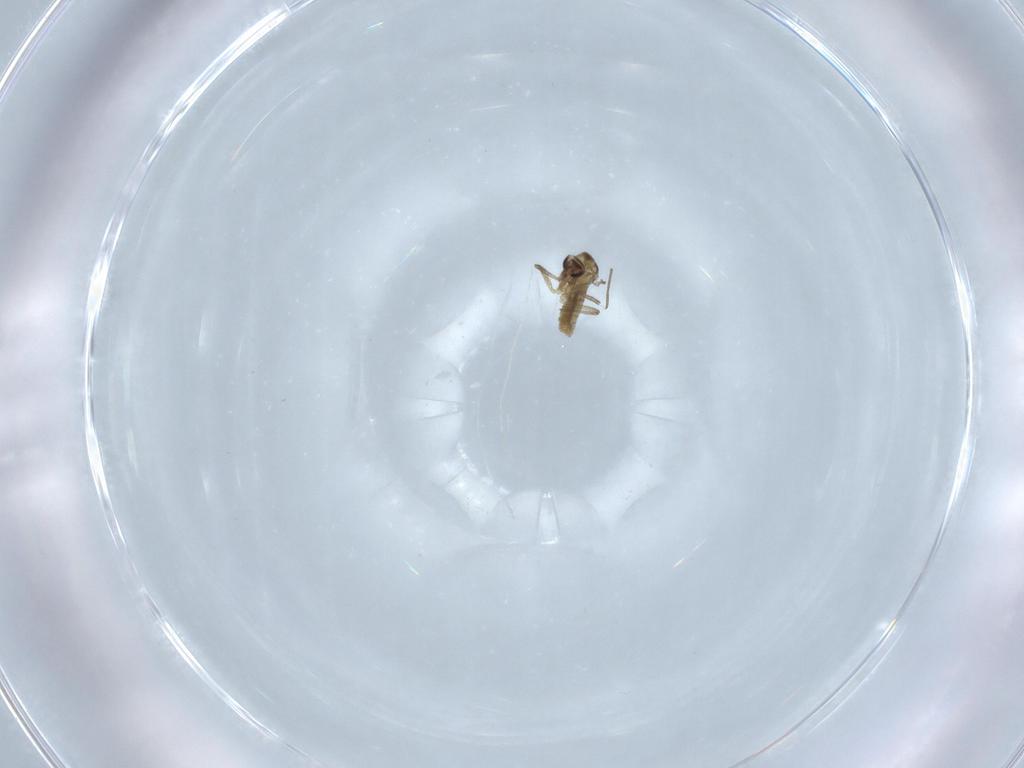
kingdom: Animalia
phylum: Arthropoda
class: Insecta
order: Diptera
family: Chironomidae
